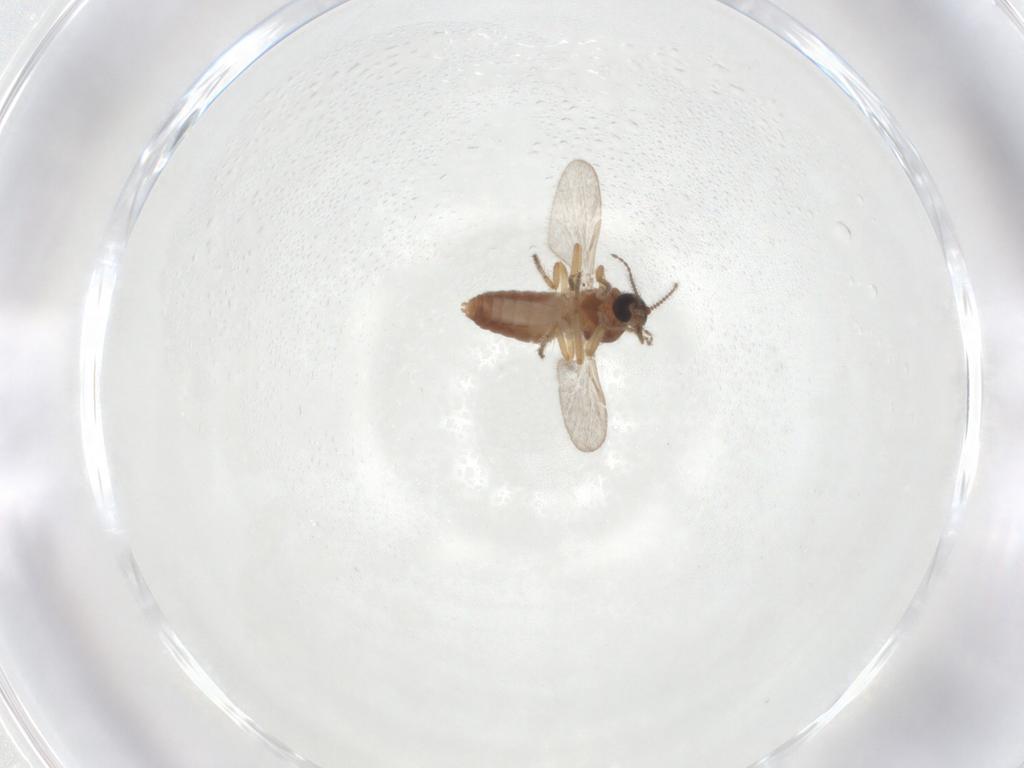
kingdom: Animalia
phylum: Arthropoda
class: Insecta
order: Diptera
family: Ceratopogonidae
